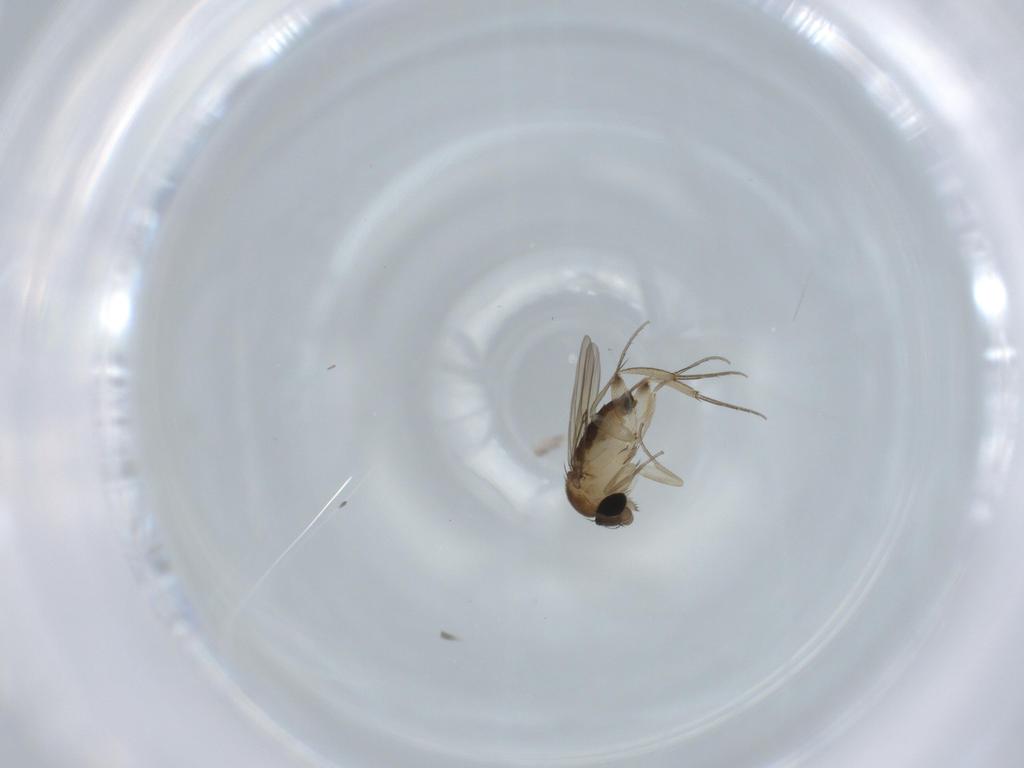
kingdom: Animalia
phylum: Arthropoda
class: Insecta
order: Diptera
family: Phoridae
